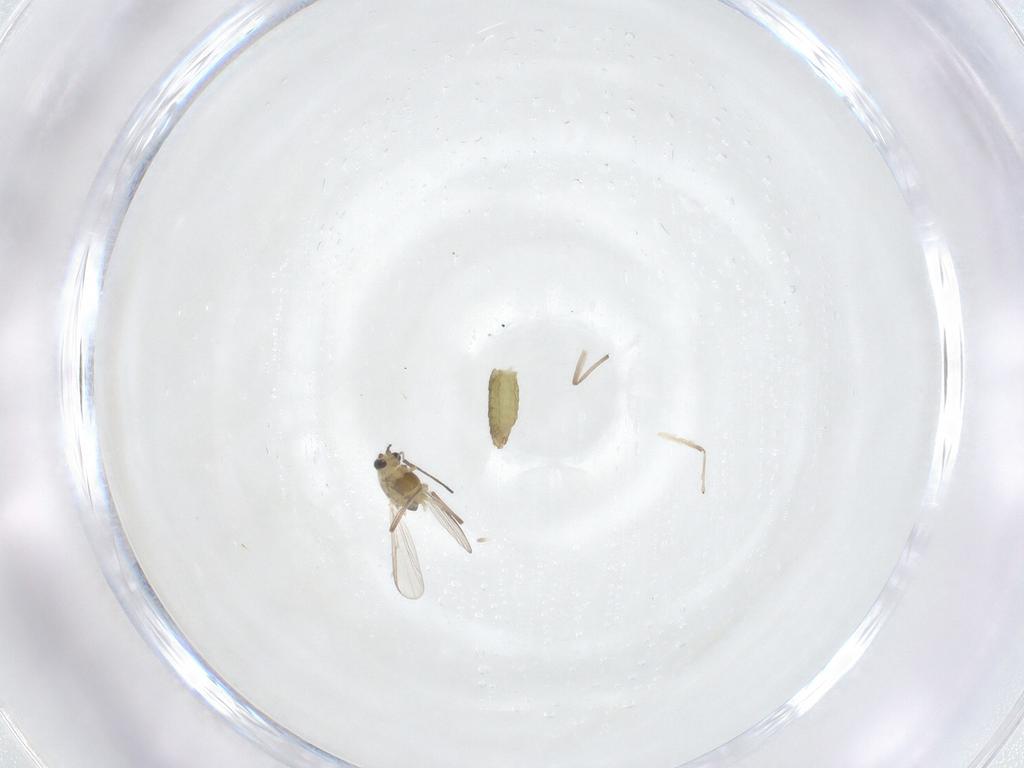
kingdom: Animalia
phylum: Arthropoda
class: Insecta
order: Diptera
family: Chironomidae
